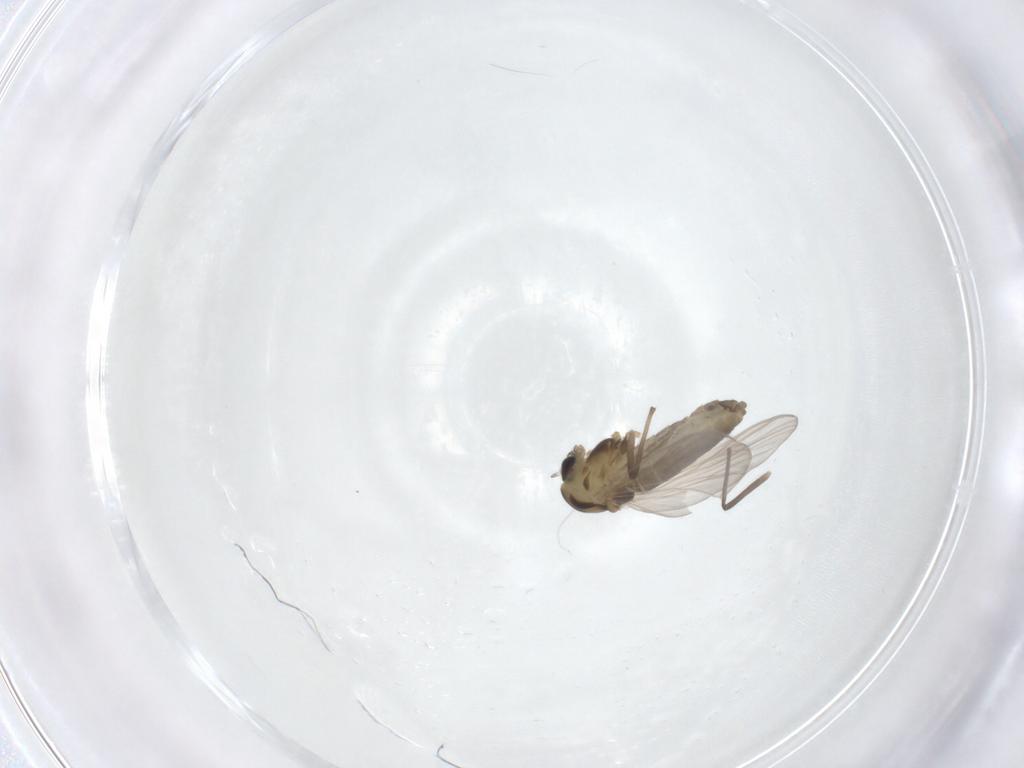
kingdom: Animalia
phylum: Arthropoda
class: Insecta
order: Diptera
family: Chironomidae
